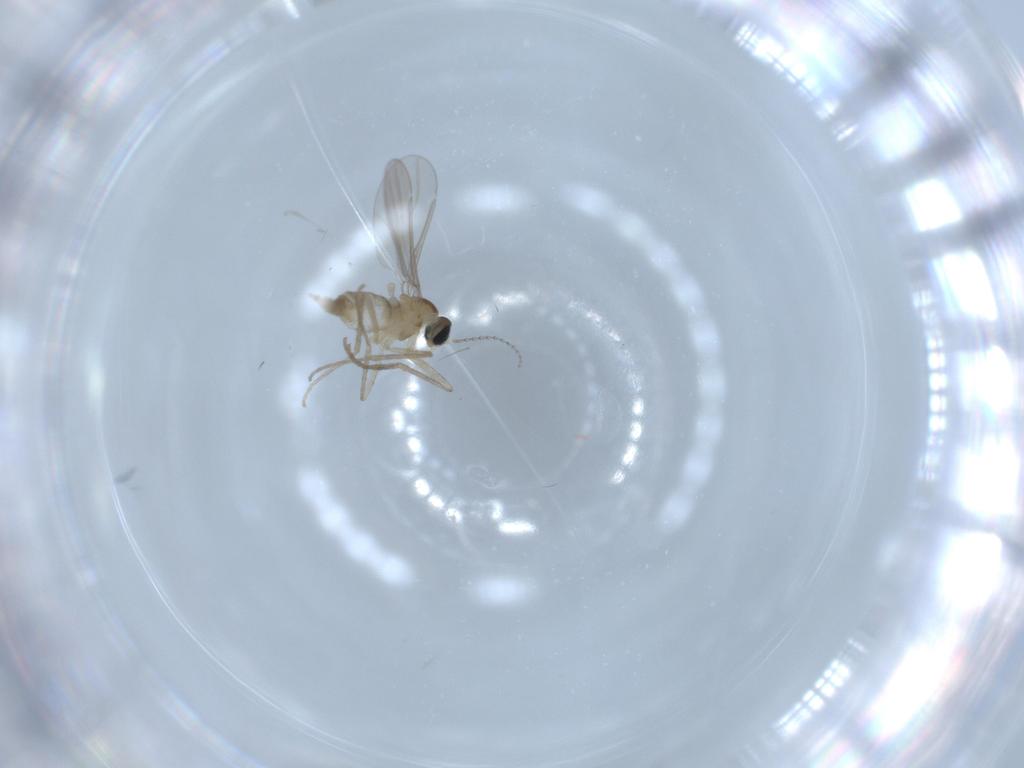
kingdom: Animalia
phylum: Arthropoda
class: Insecta
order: Diptera
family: Cecidomyiidae
